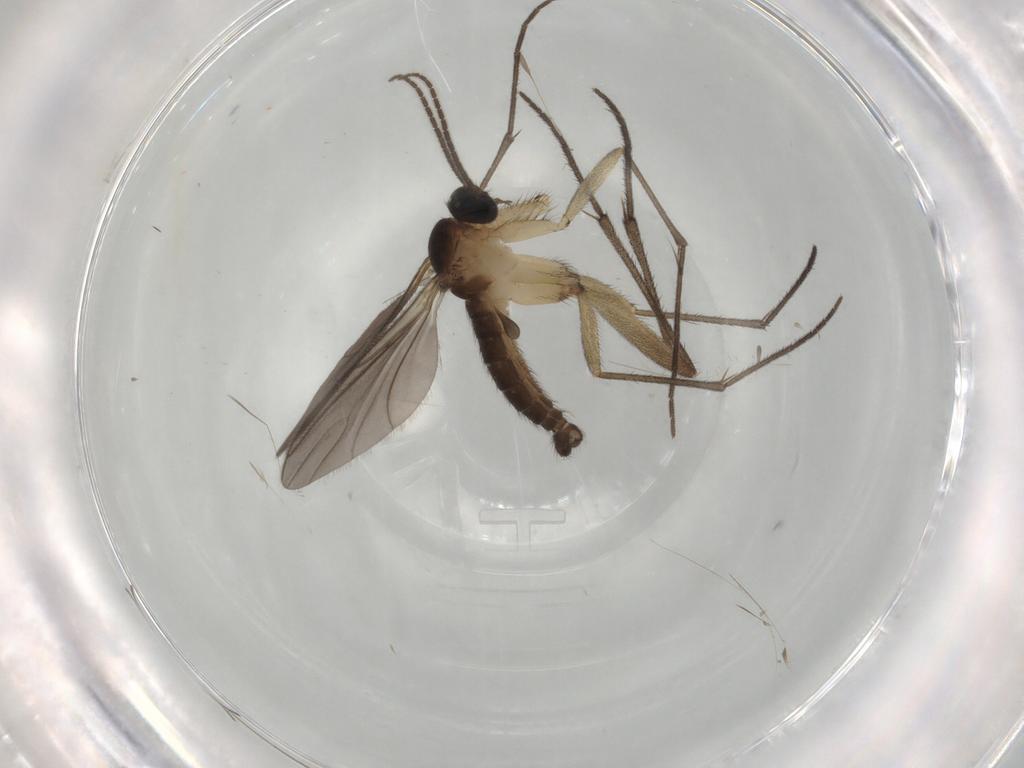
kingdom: Animalia
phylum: Arthropoda
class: Insecta
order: Diptera
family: Sciaridae
